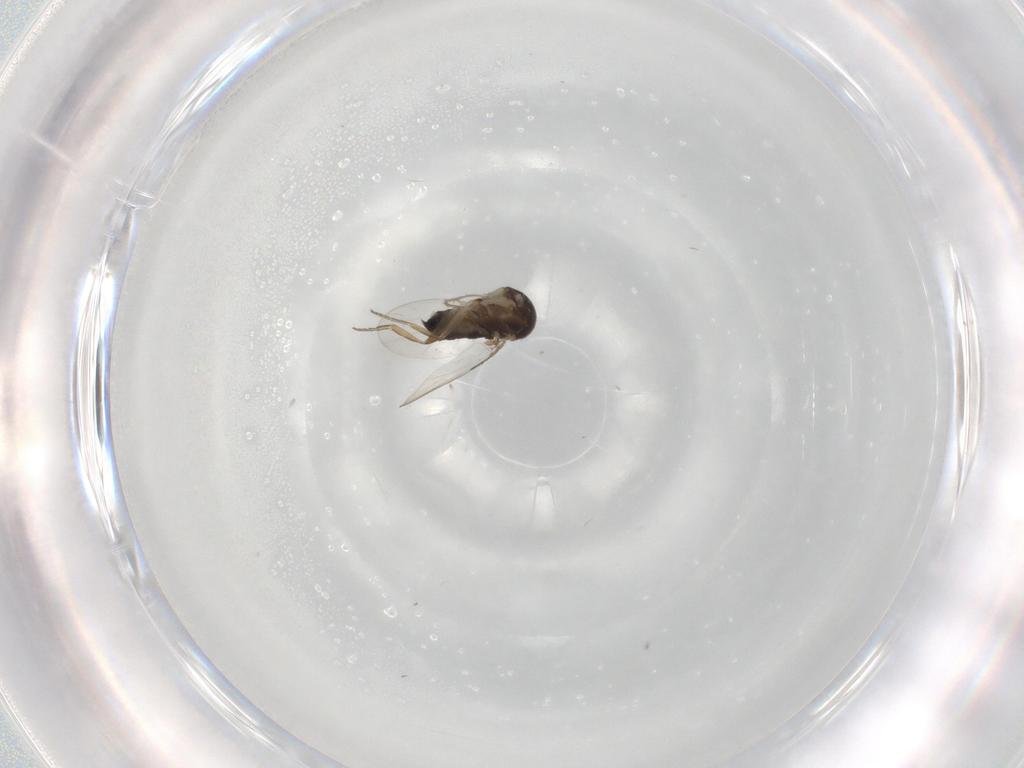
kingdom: Animalia
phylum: Arthropoda
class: Insecta
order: Diptera
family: Phoridae
